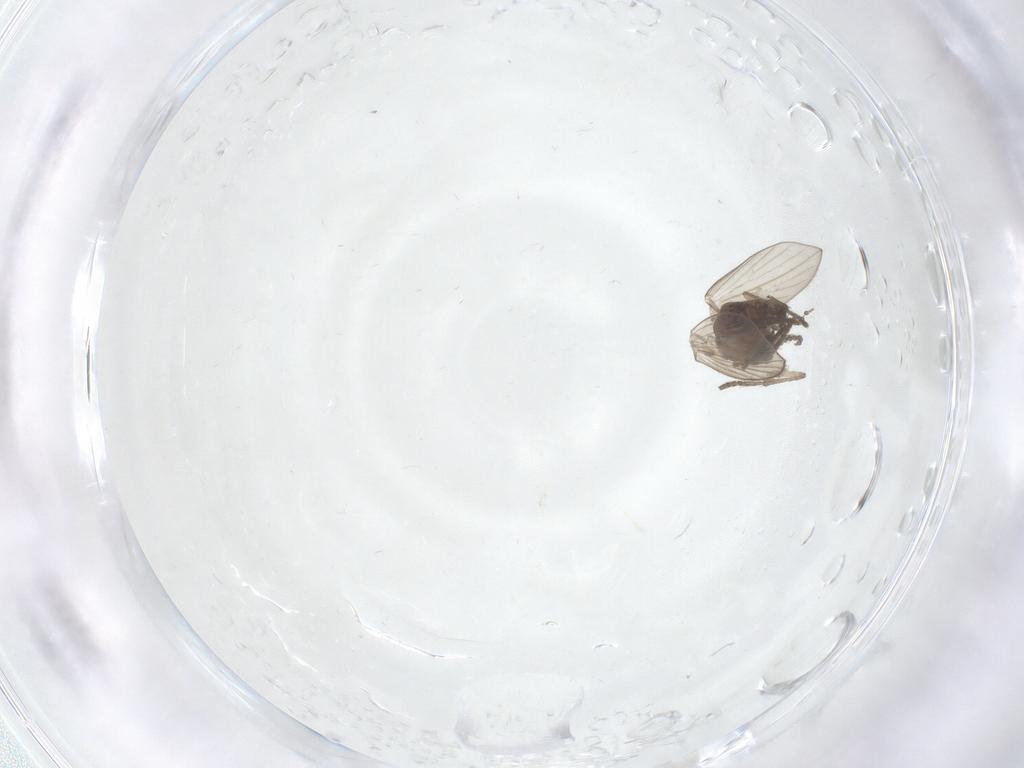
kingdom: Animalia
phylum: Arthropoda
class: Insecta
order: Diptera
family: Psychodidae
